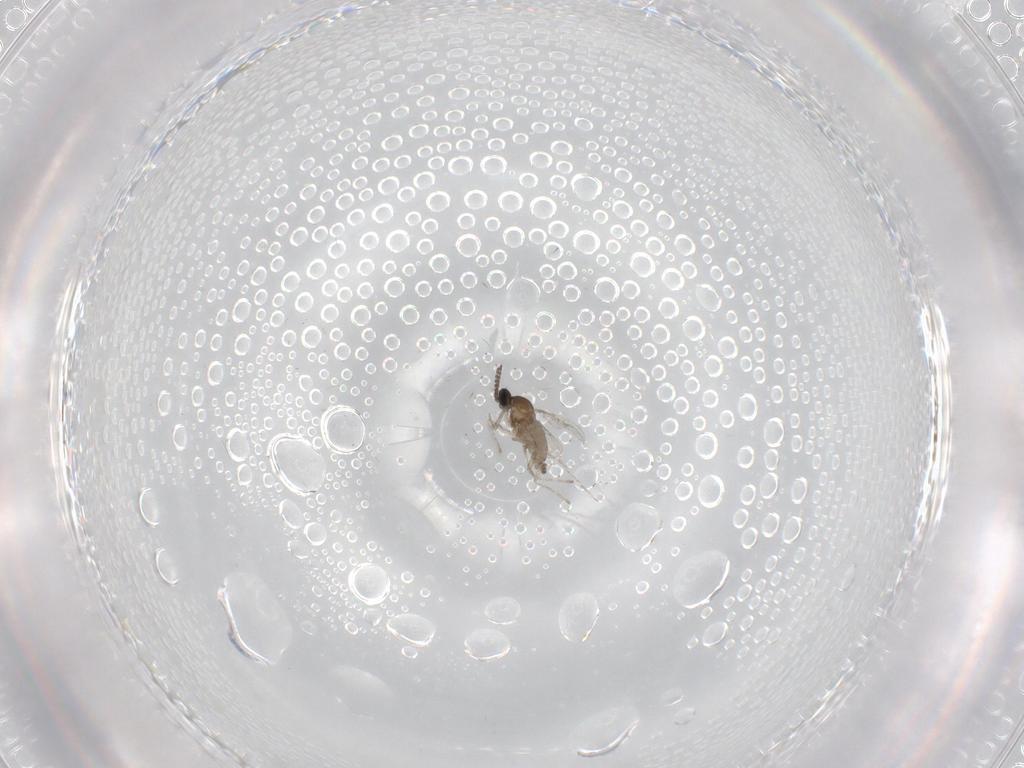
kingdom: Animalia
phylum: Arthropoda
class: Insecta
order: Diptera
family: Cecidomyiidae
